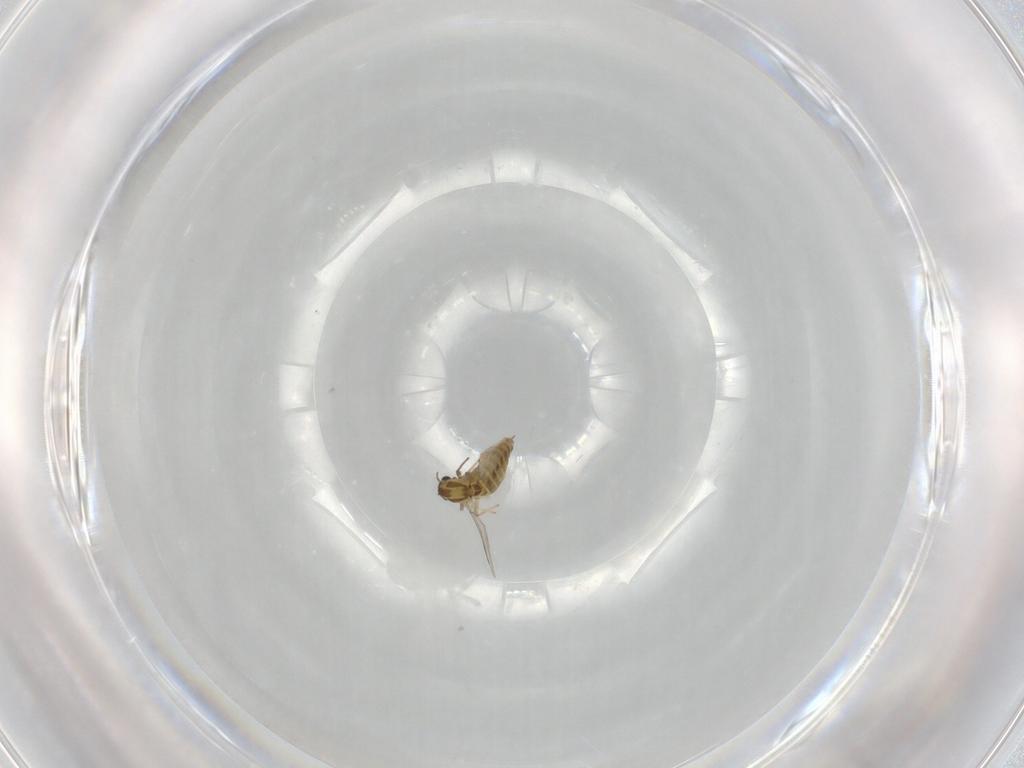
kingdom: Animalia
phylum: Arthropoda
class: Insecta
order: Diptera
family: Chironomidae
